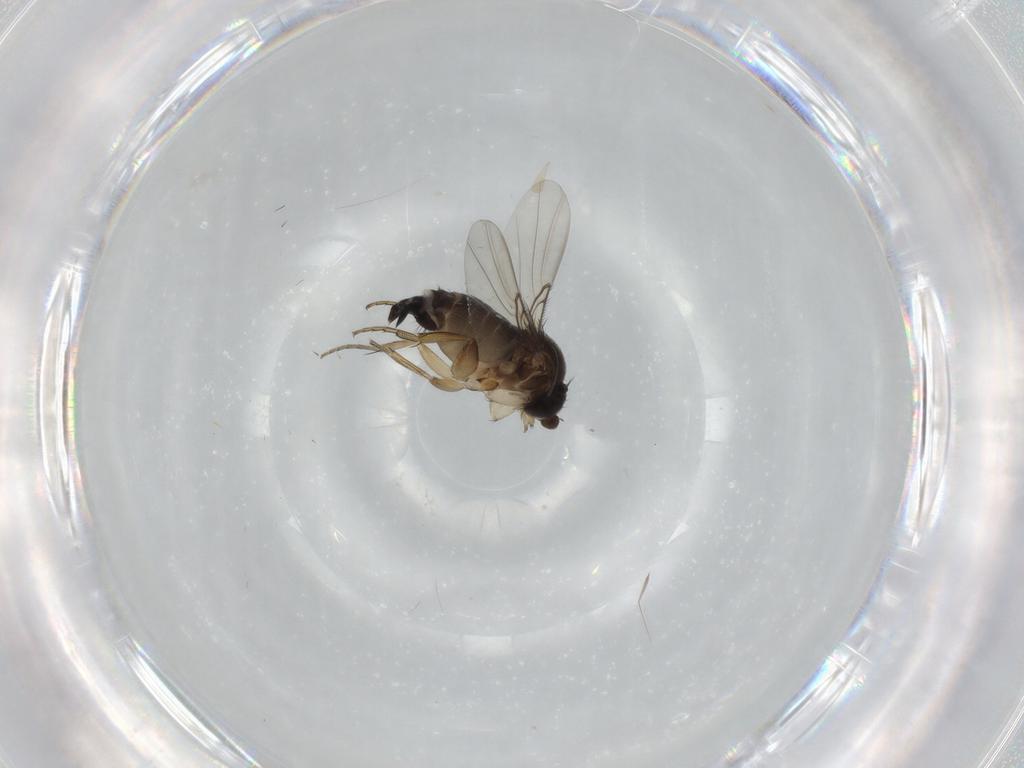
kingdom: Animalia
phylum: Arthropoda
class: Insecta
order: Diptera
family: Phoridae
